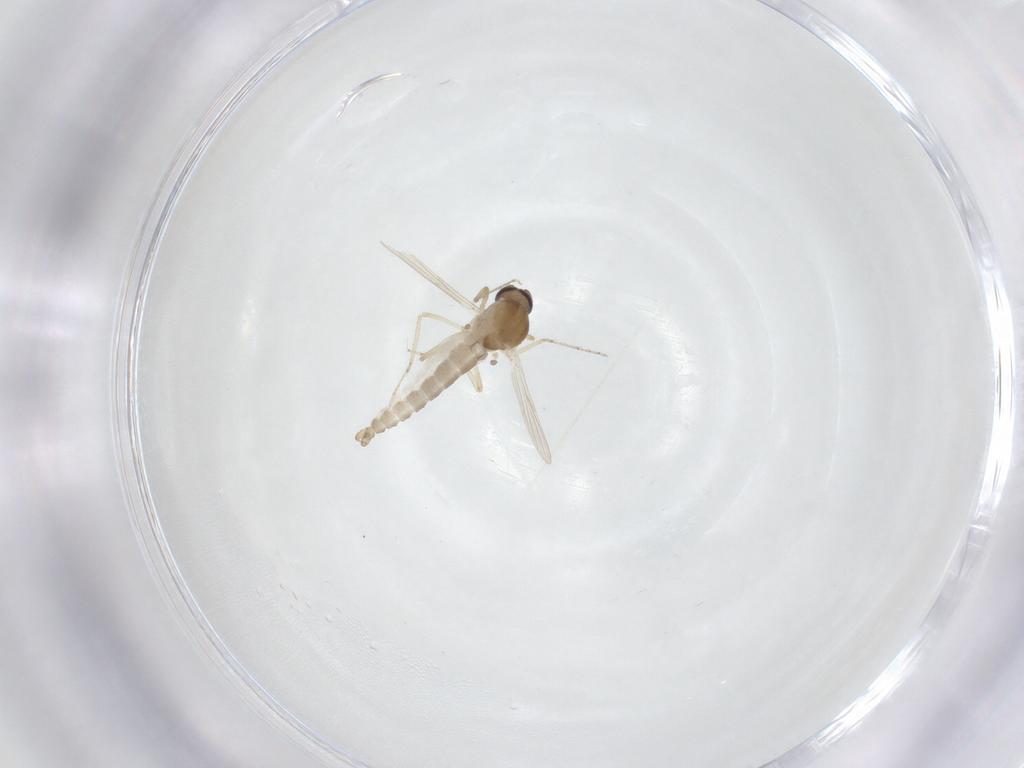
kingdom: Animalia
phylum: Arthropoda
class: Insecta
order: Diptera
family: Ceratopogonidae
